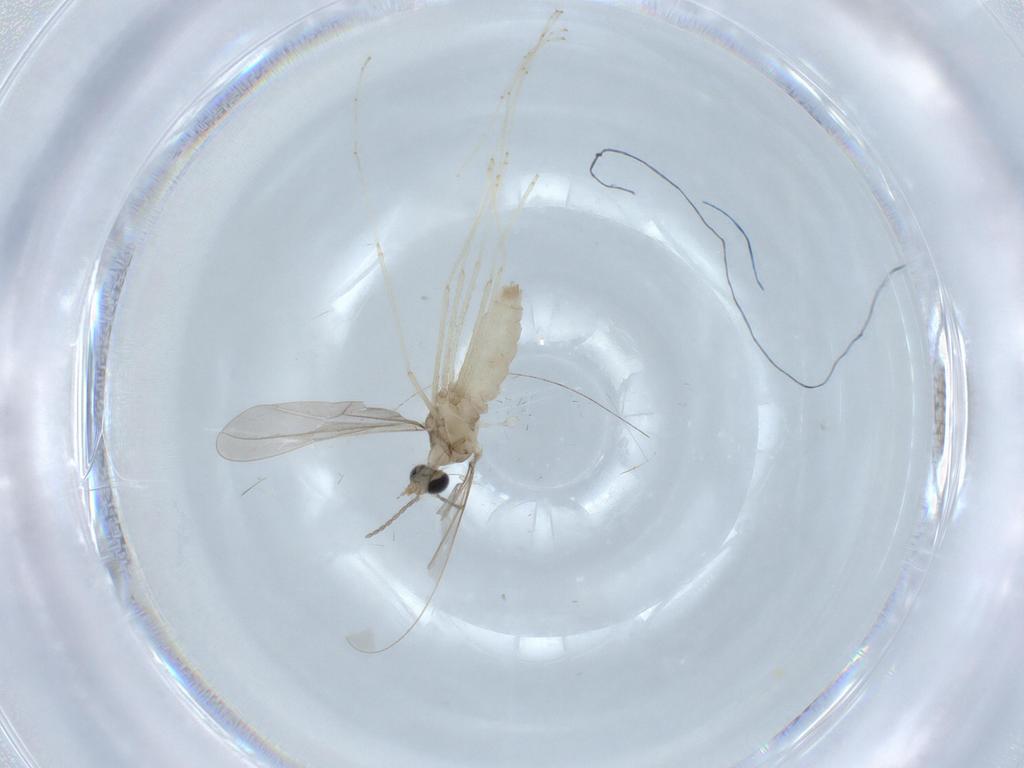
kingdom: Animalia
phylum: Arthropoda
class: Insecta
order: Diptera
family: Cecidomyiidae
